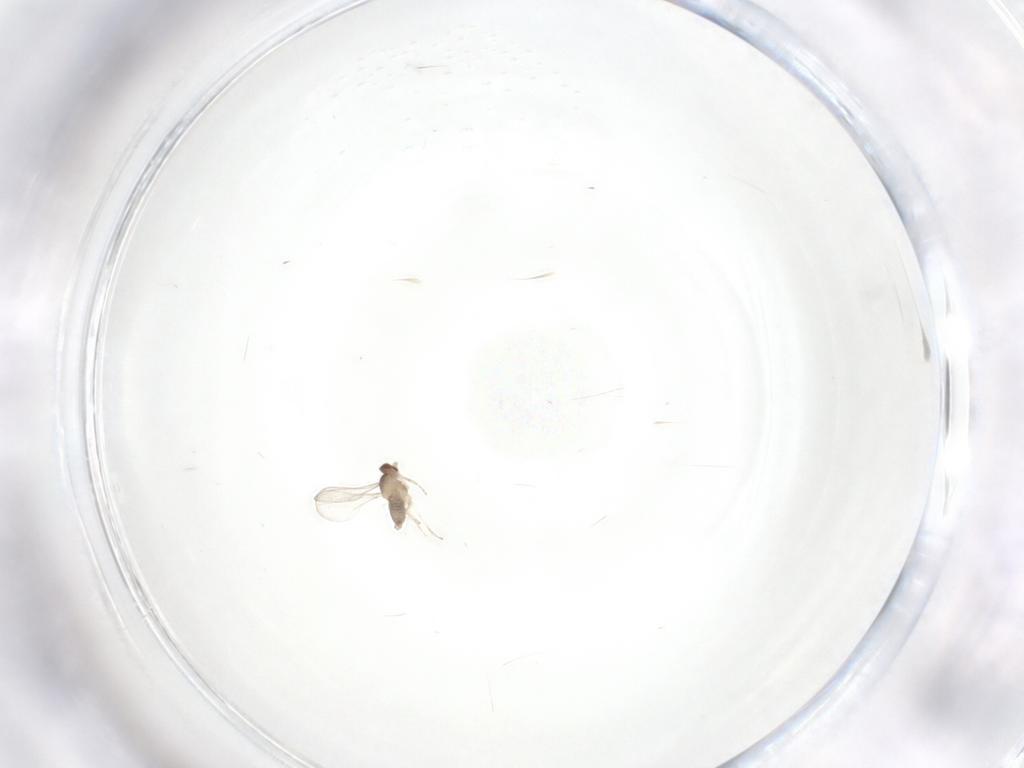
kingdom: Animalia
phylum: Arthropoda
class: Insecta
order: Diptera
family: Cecidomyiidae
